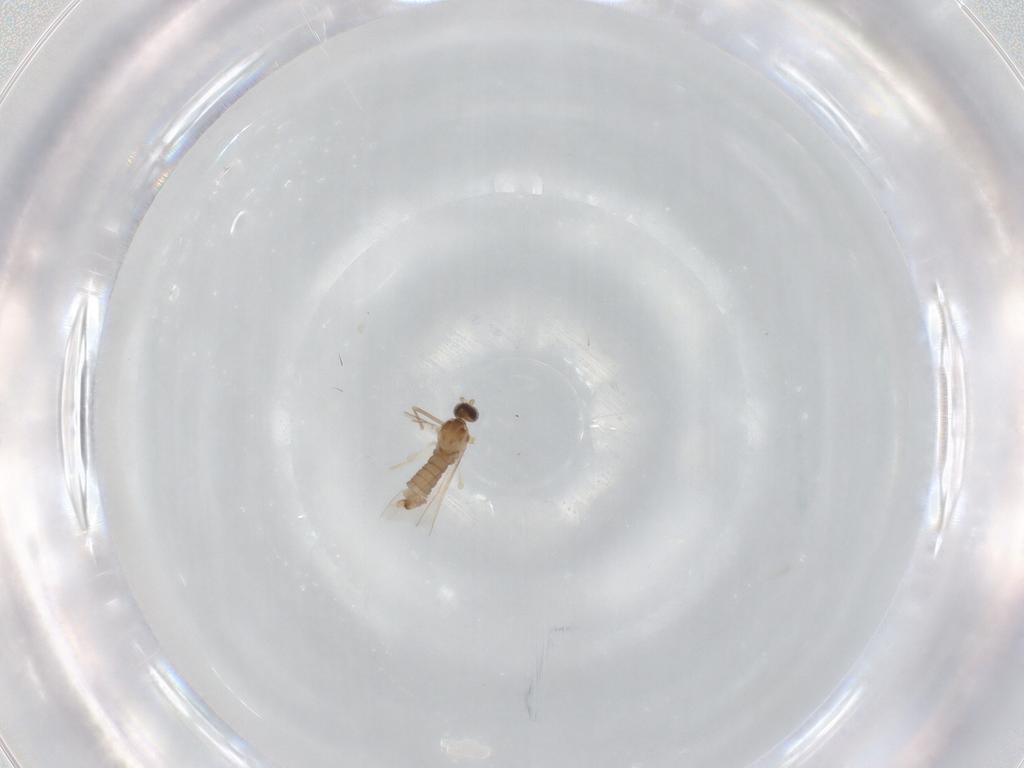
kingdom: Animalia
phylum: Arthropoda
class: Insecta
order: Diptera
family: Cecidomyiidae
